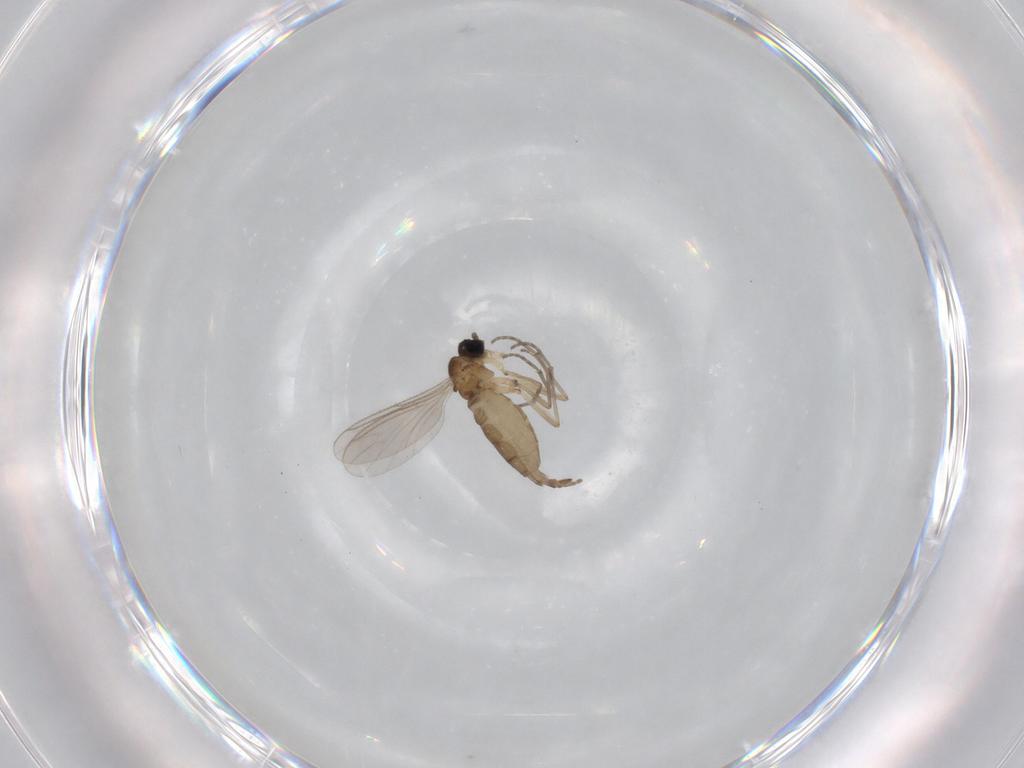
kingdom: Animalia
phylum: Arthropoda
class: Insecta
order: Diptera
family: Sciaridae
